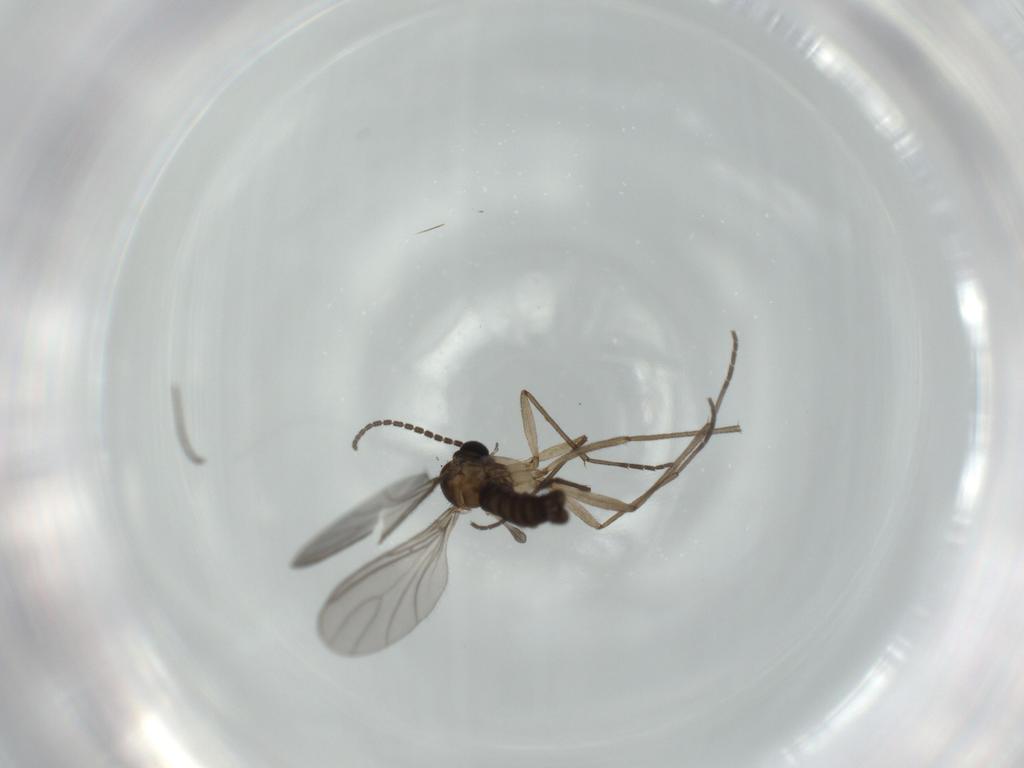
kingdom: Animalia
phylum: Arthropoda
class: Insecta
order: Diptera
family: Sciaridae
